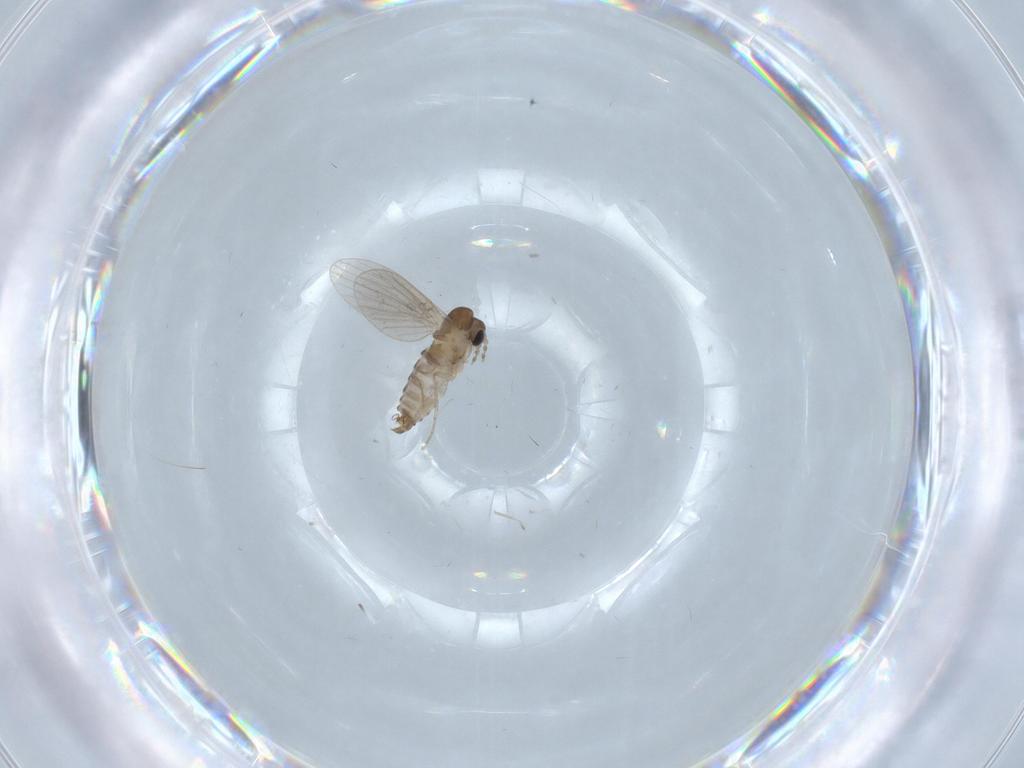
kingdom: Animalia
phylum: Arthropoda
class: Insecta
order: Diptera
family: Psychodidae
